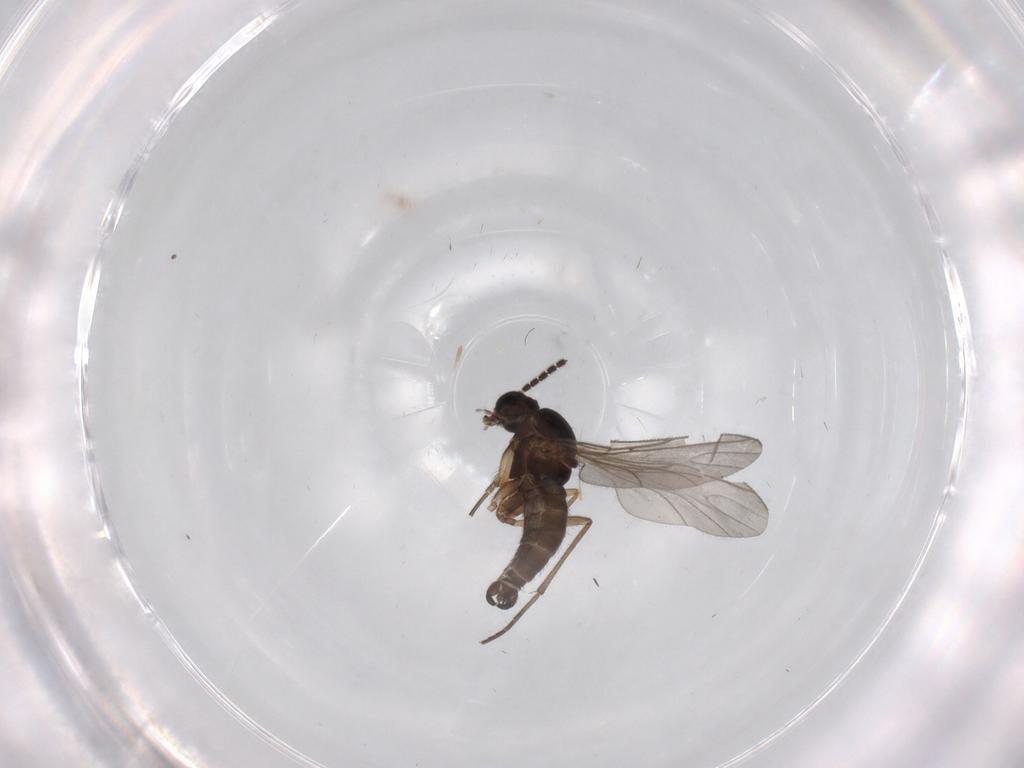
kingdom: Animalia
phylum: Arthropoda
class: Insecta
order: Diptera
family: Sciaridae
